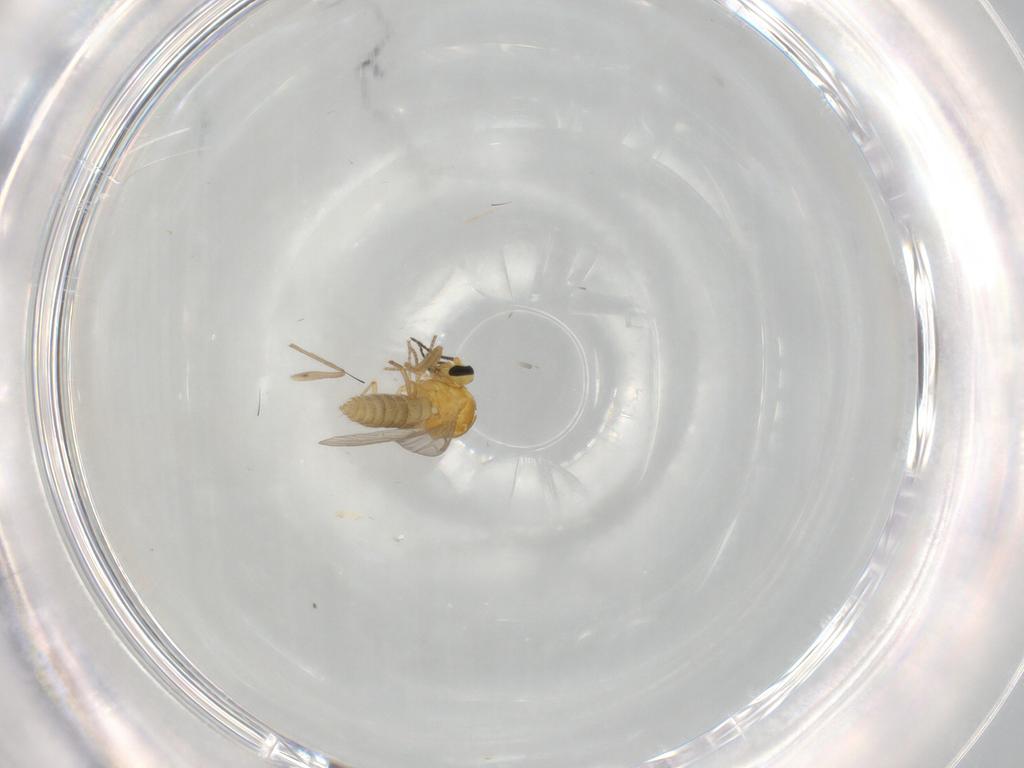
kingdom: Animalia
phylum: Arthropoda
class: Insecta
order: Diptera
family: Ceratopogonidae
